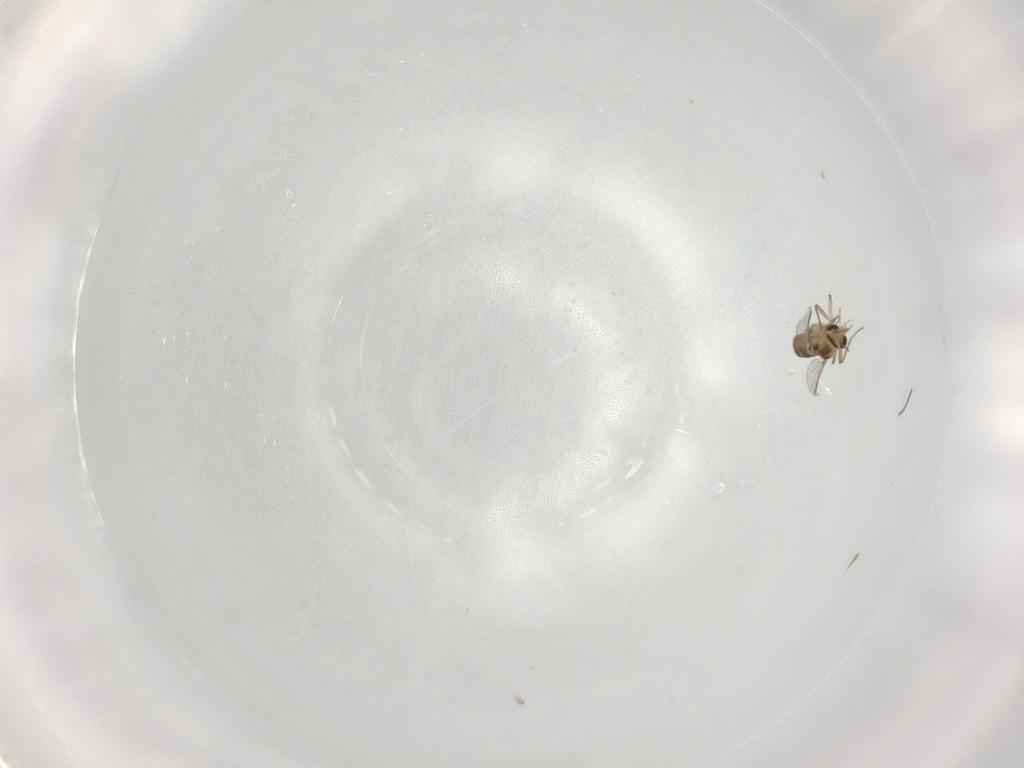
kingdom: Animalia
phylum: Arthropoda
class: Insecta
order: Diptera
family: Chironomidae
